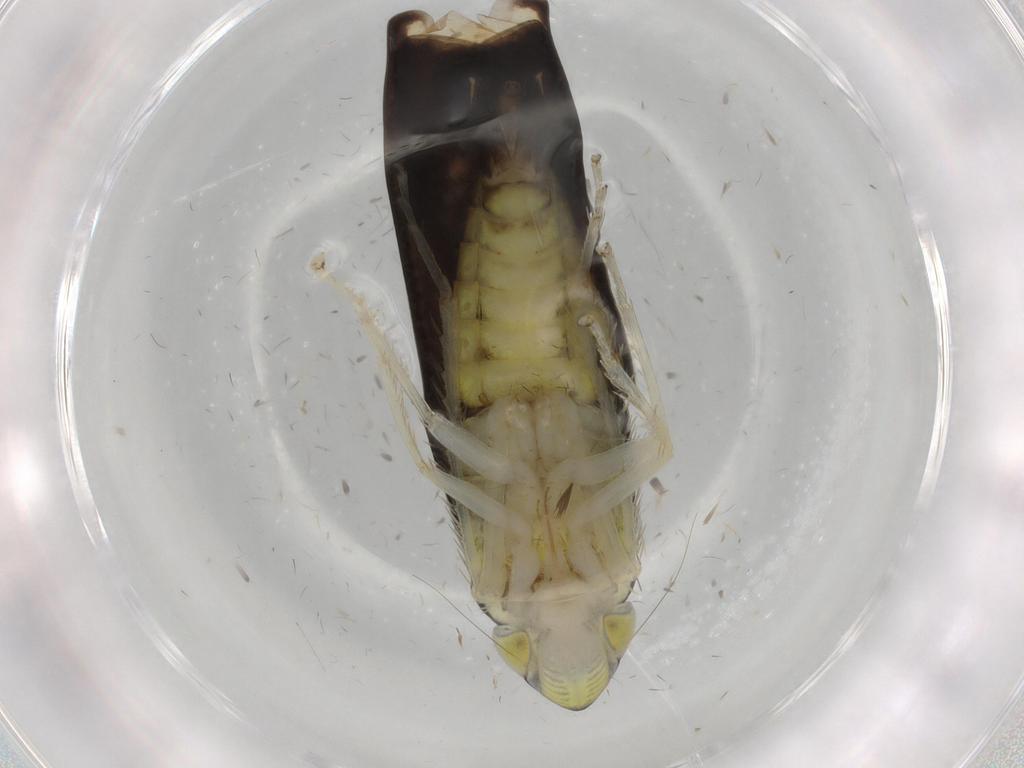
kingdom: Animalia
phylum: Arthropoda
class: Insecta
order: Hemiptera
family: Cicadellidae
